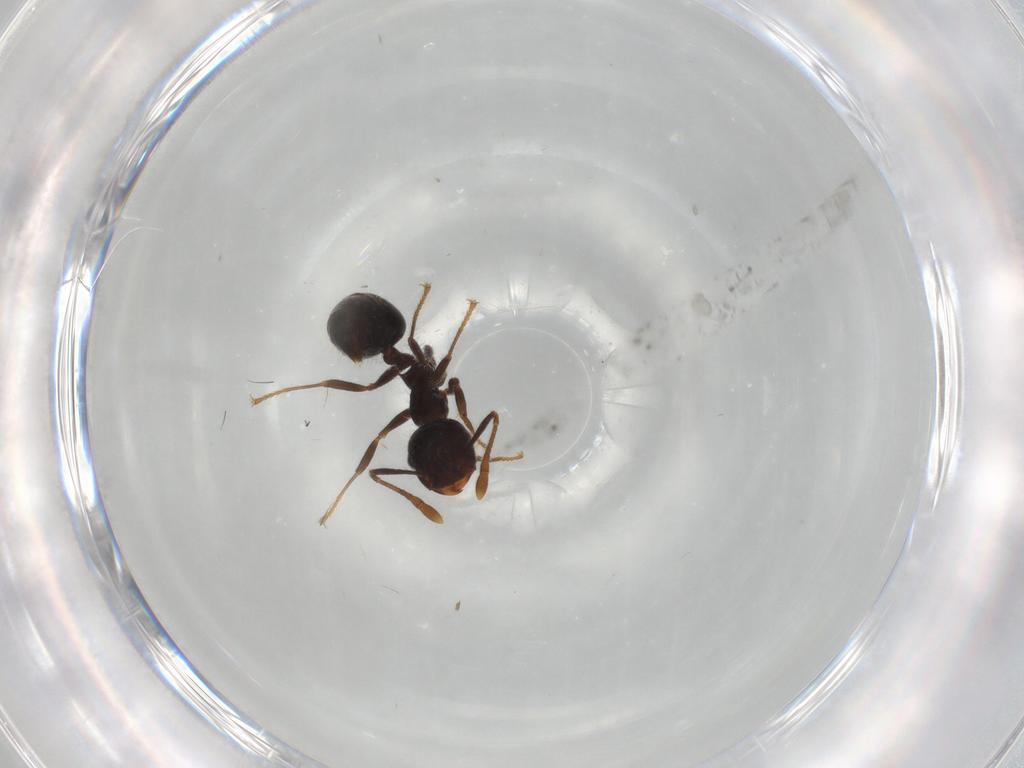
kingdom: Animalia
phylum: Arthropoda
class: Insecta
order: Hymenoptera
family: Formicidae
